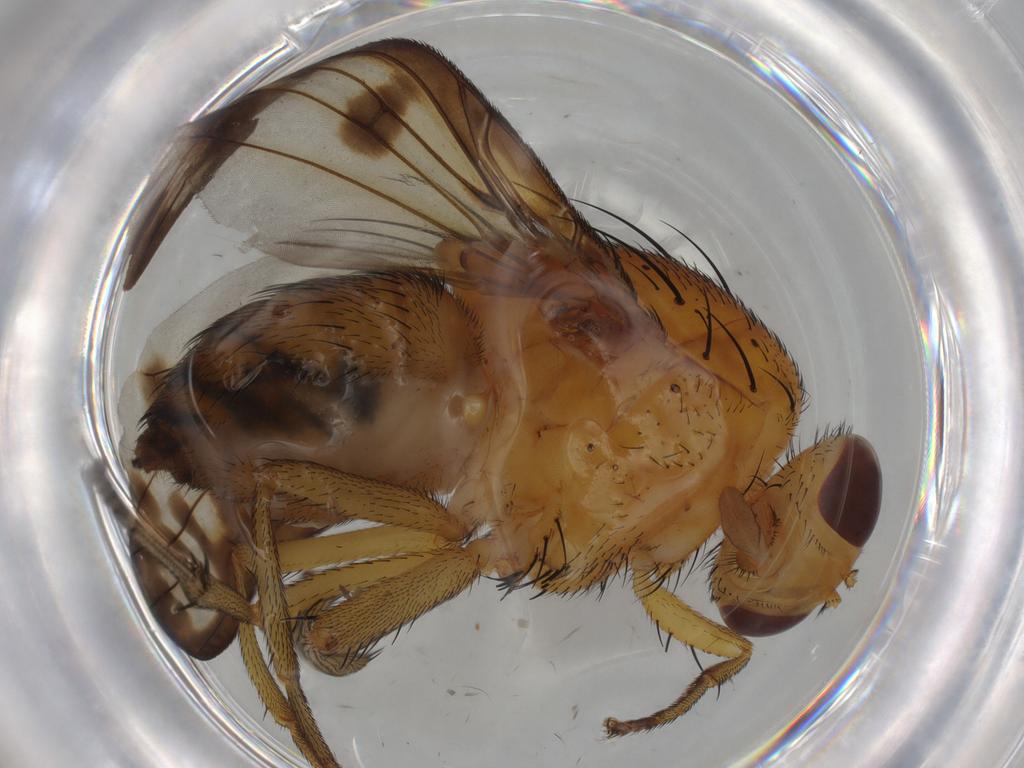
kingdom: Animalia
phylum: Arthropoda
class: Insecta
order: Diptera
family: Lauxaniidae
